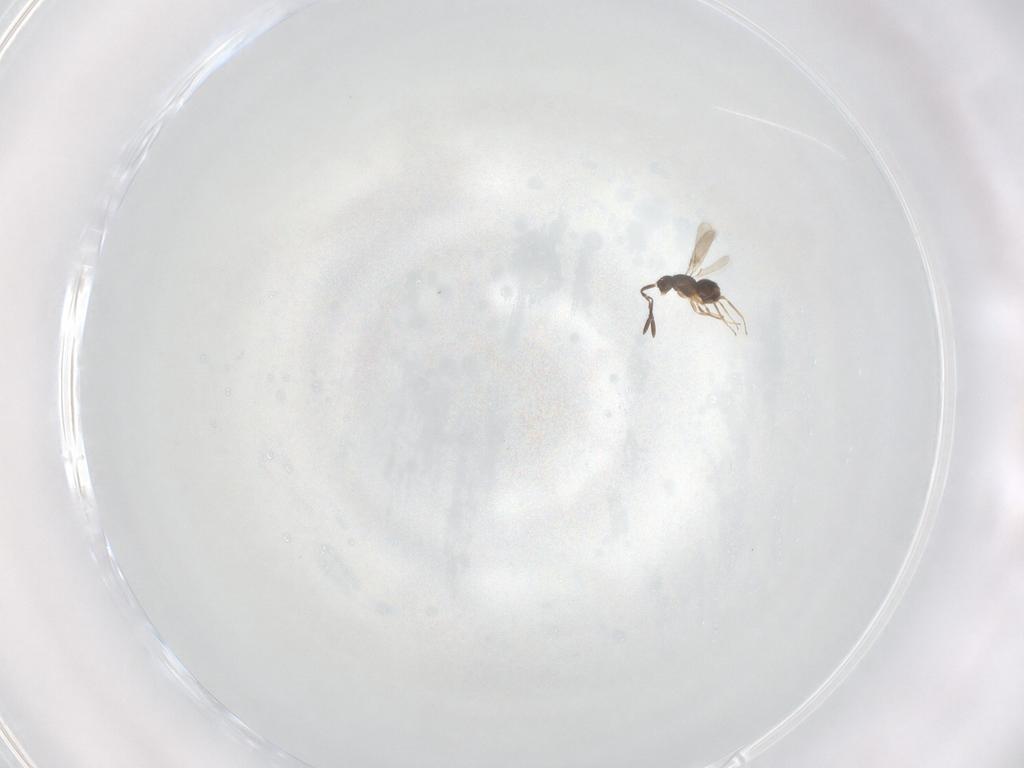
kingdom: Animalia
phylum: Arthropoda
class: Insecta
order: Hymenoptera
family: Mymaridae
